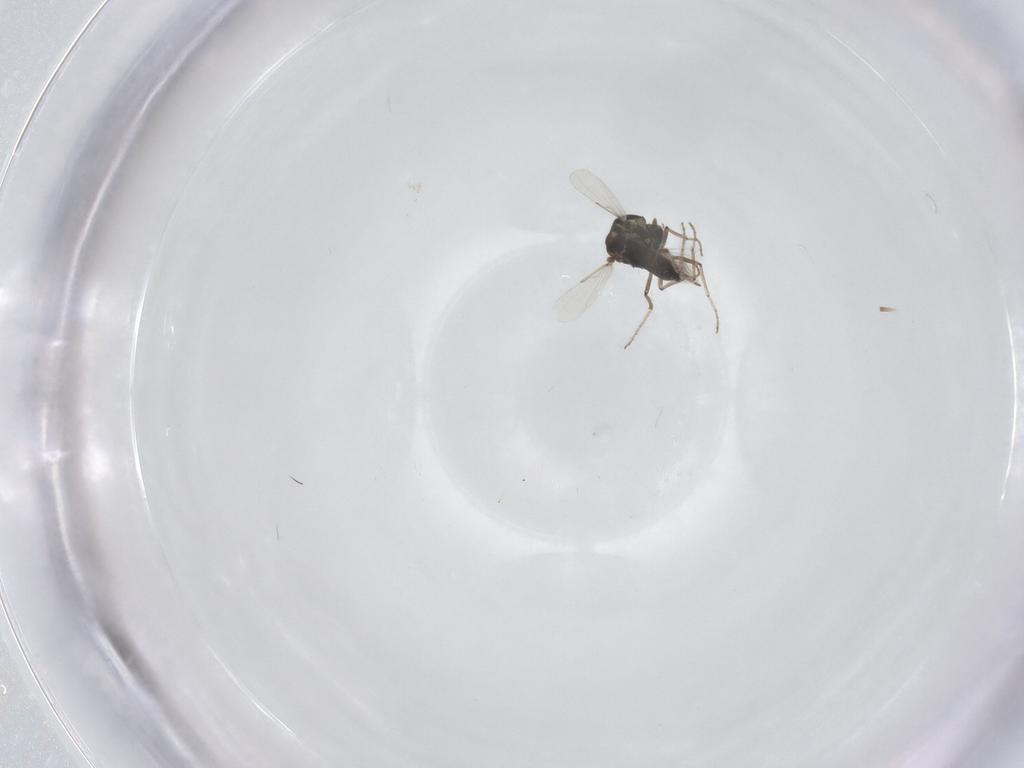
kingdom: Animalia
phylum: Arthropoda
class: Insecta
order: Diptera
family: Ceratopogonidae
